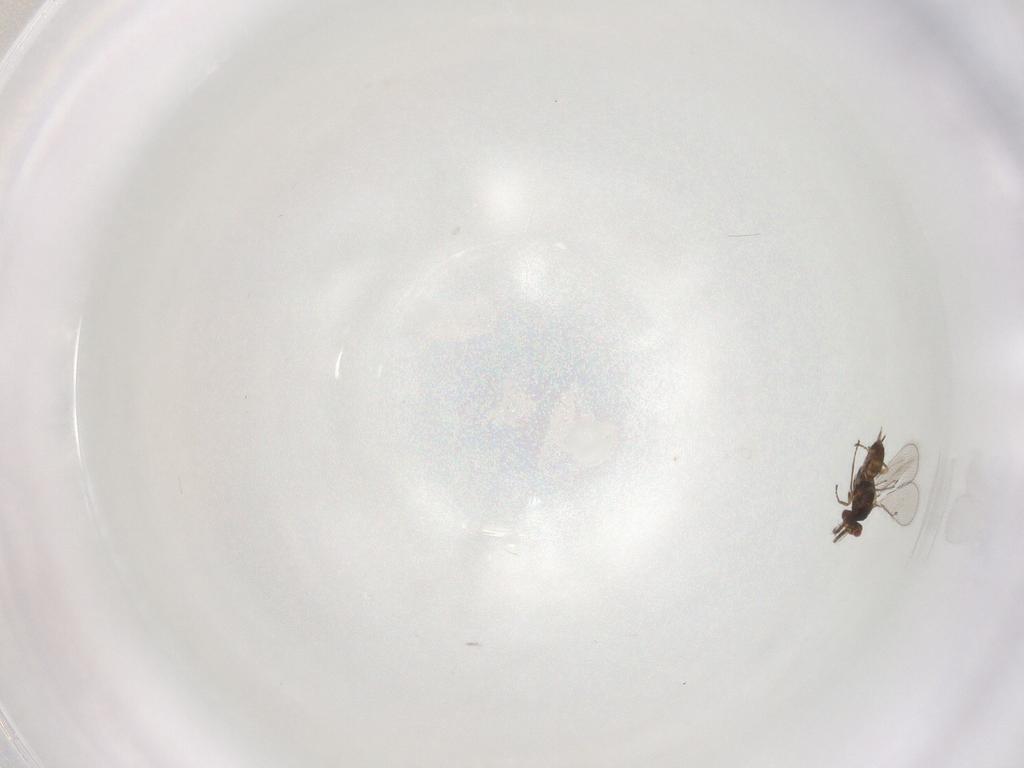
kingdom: Animalia
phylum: Arthropoda
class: Insecta
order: Hymenoptera
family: Eulophidae
